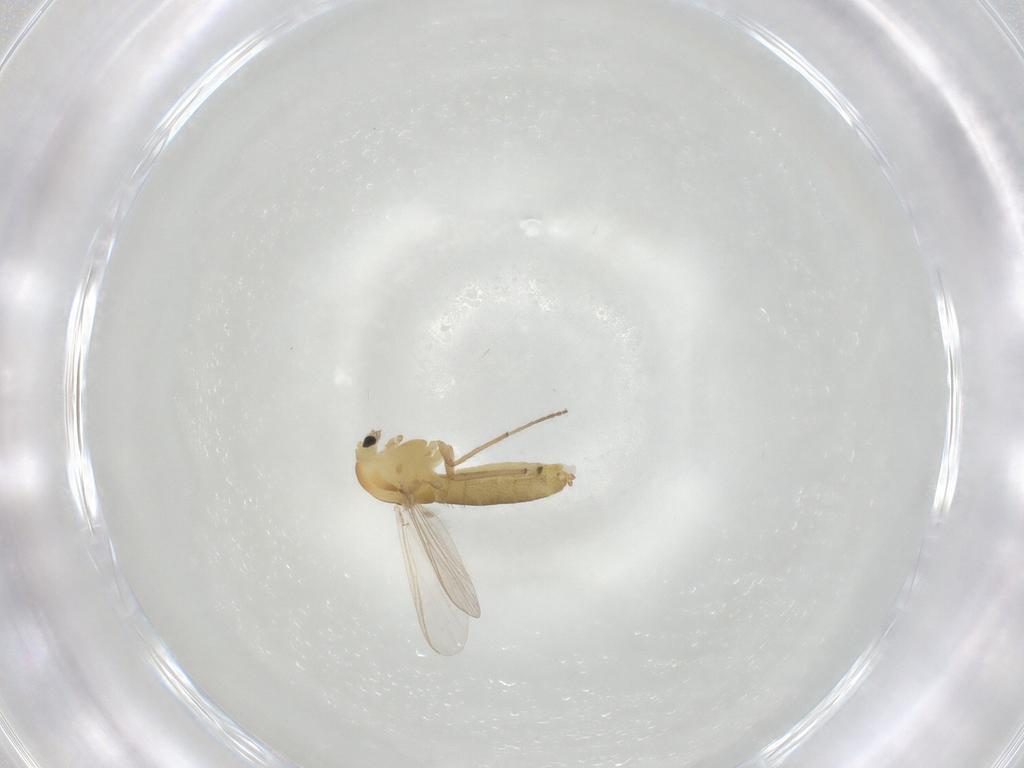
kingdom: Animalia
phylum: Arthropoda
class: Insecta
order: Diptera
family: Chironomidae
